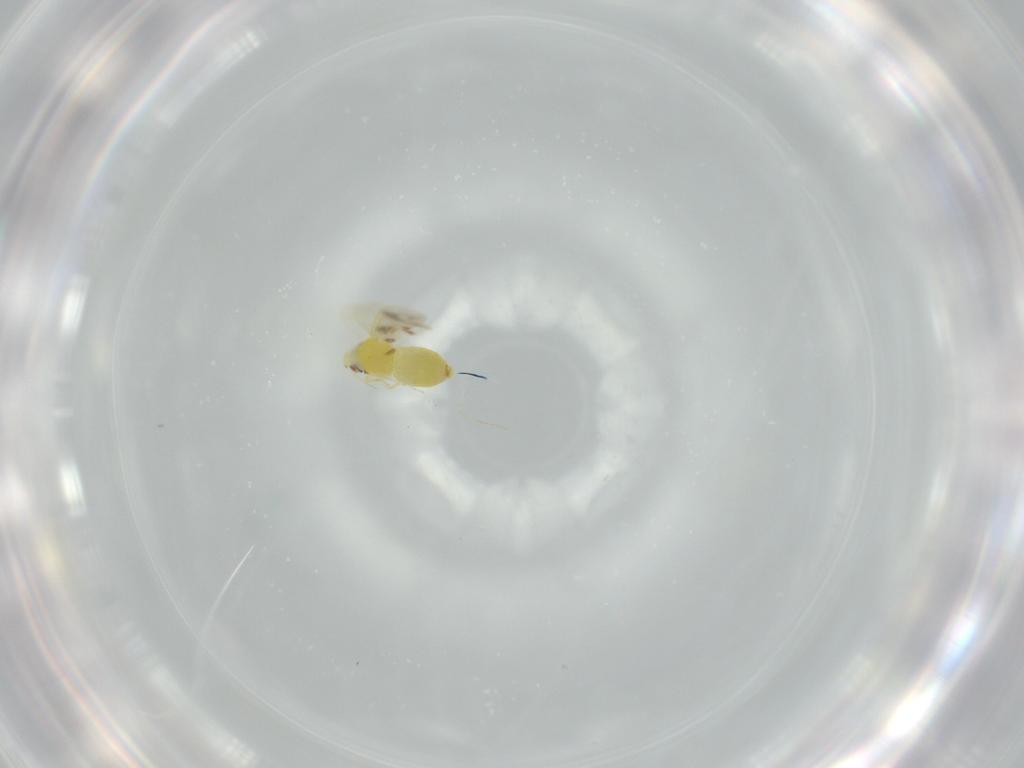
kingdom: Animalia
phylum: Arthropoda
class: Insecta
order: Hemiptera
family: Aleyrodidae
